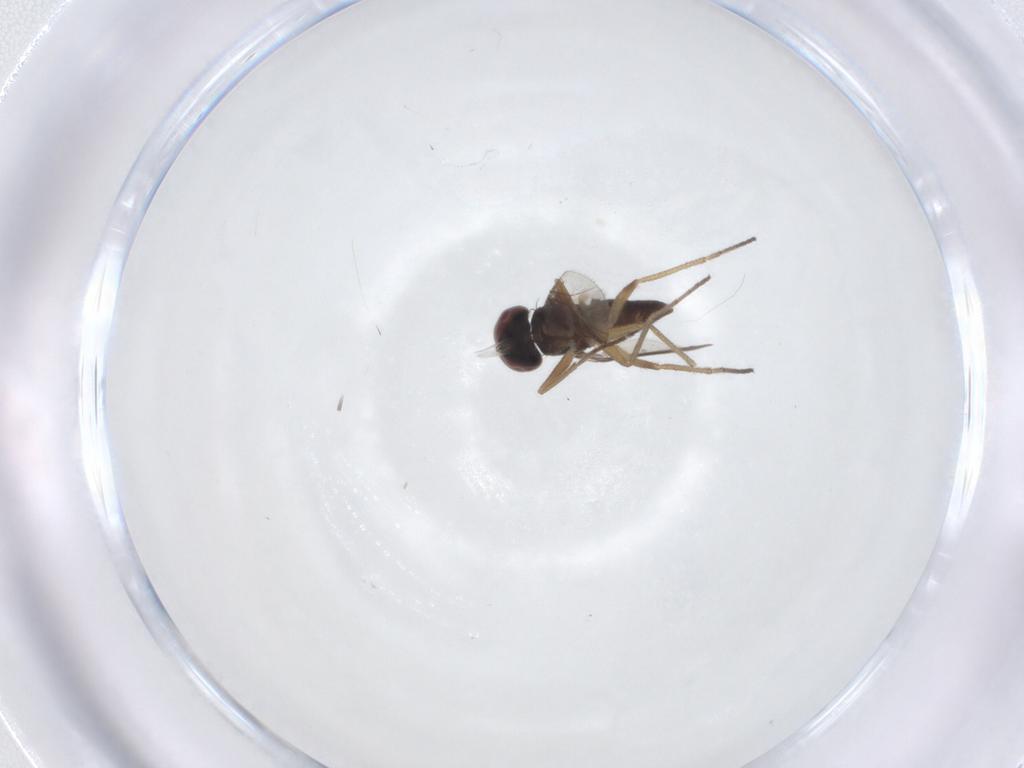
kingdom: Animalia
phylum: Arthropoda
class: Insecta
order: Diptera
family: Dolichopodidae
